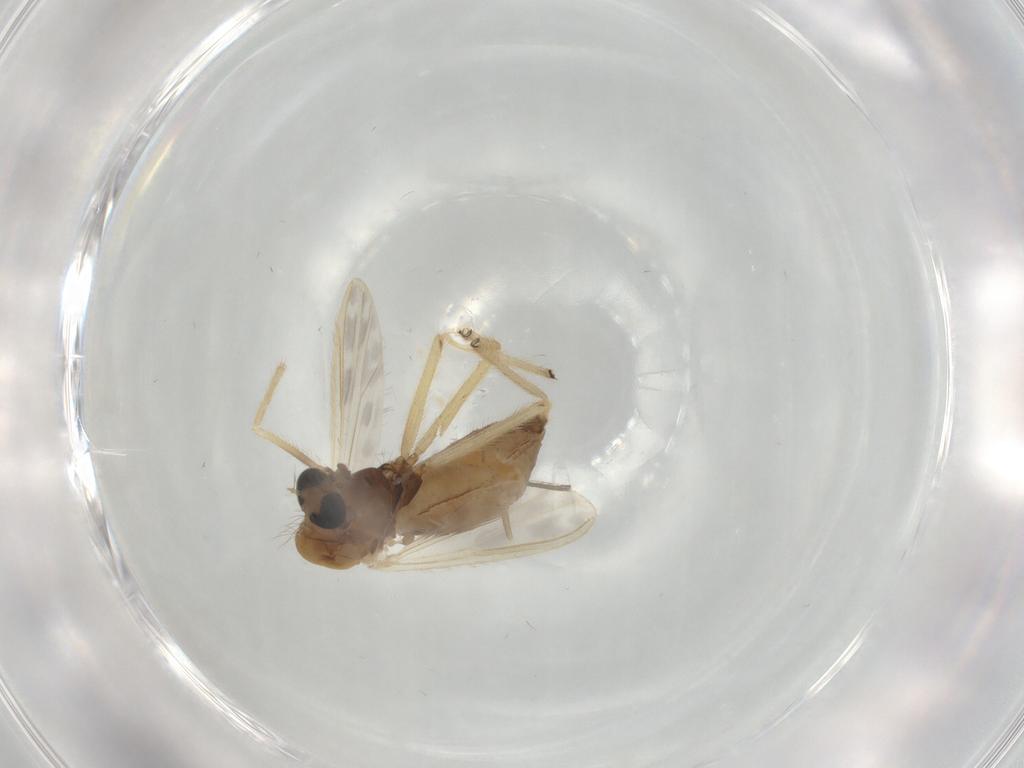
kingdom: Animalia
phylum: Arthropoda
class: Insecta
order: Diptera
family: Chironomidae
